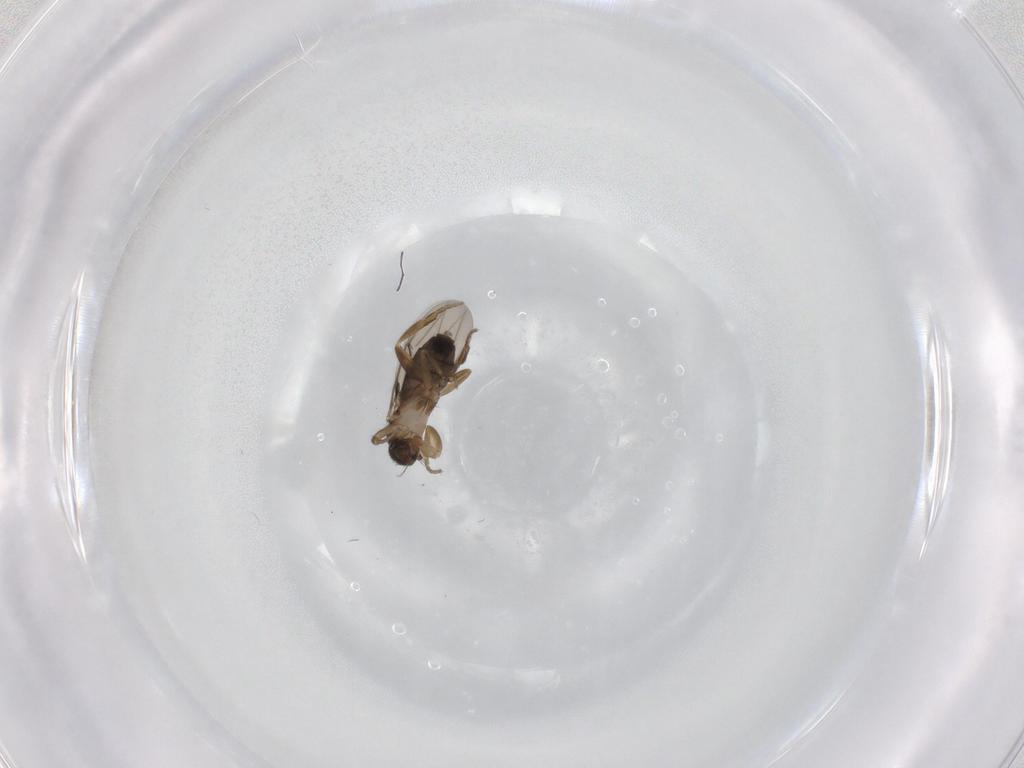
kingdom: Animalia
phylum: Arthropoda
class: Insecta
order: Diptera
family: Phoridae
